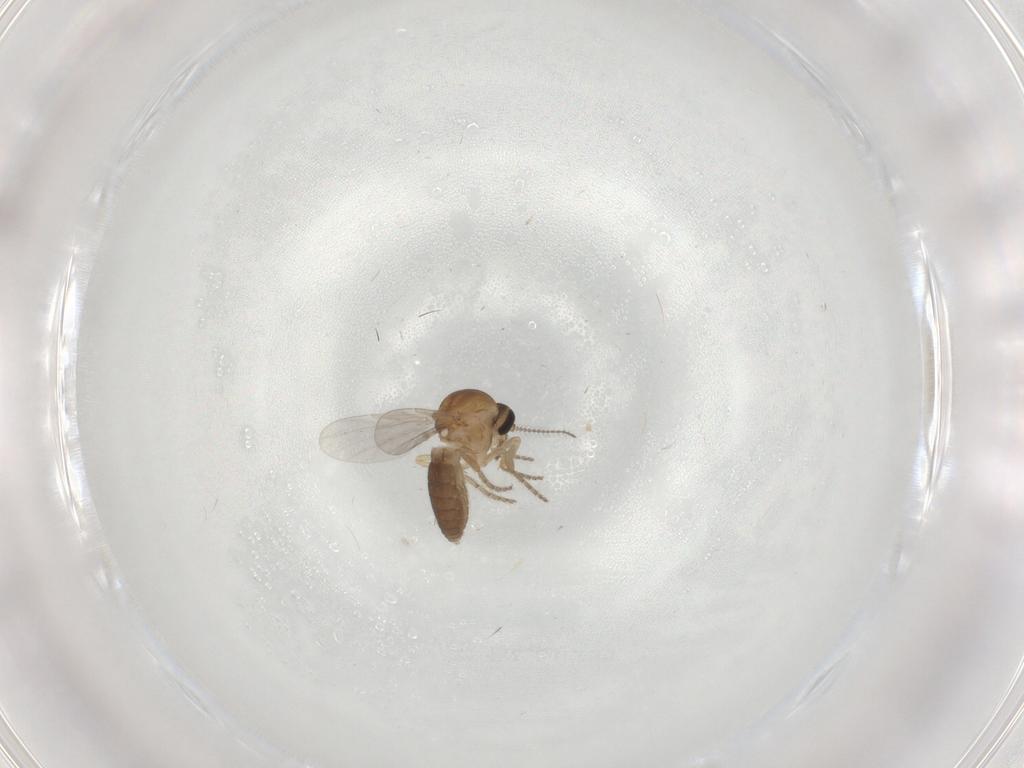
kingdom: Animalia
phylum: Arthropoda
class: Insecta
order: Diptera
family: Ceratopogonidae
